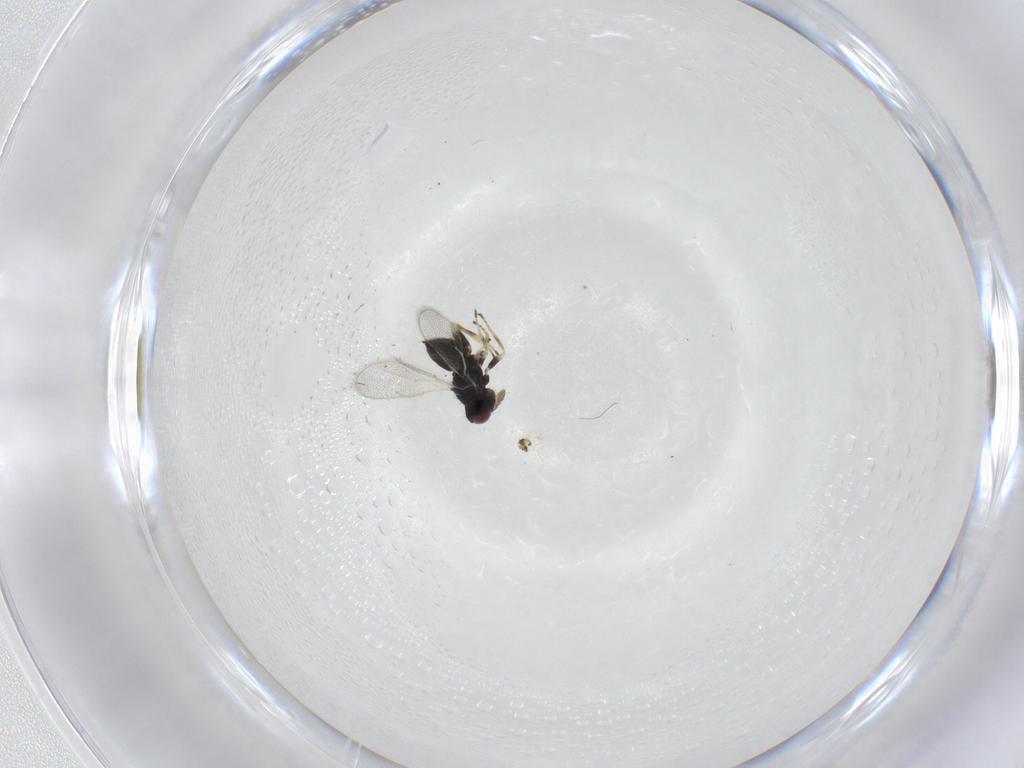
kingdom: Animalia
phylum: Arthropoda
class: Insecta
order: Hymenoptera
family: Eulophidae
